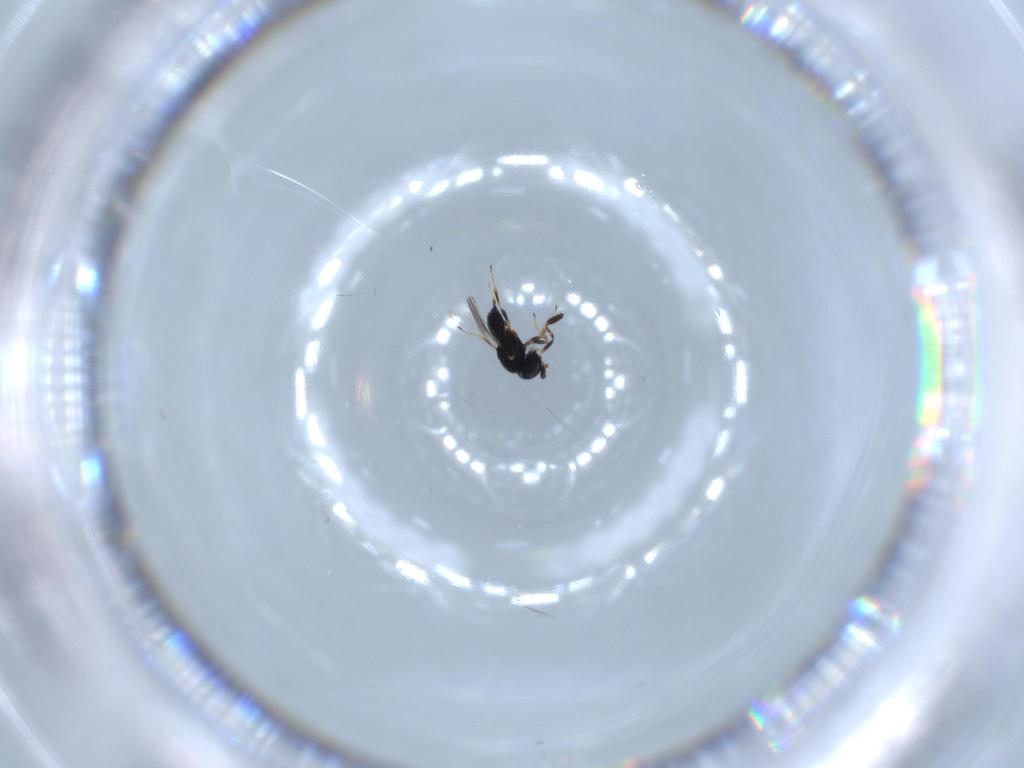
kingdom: Animalia
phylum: Arthropoda
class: Insecta
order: Hymenoptera
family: Scelionidae
